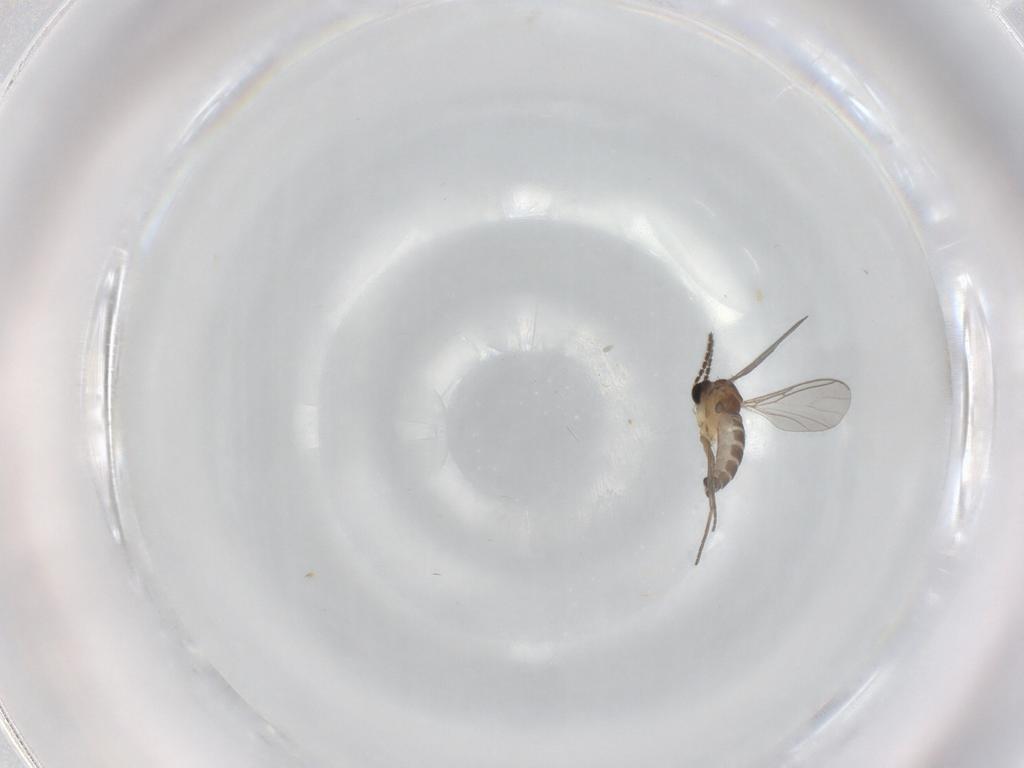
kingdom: Animalia
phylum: Arthropoda
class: Insecta
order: Diptera
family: Sciaridae
